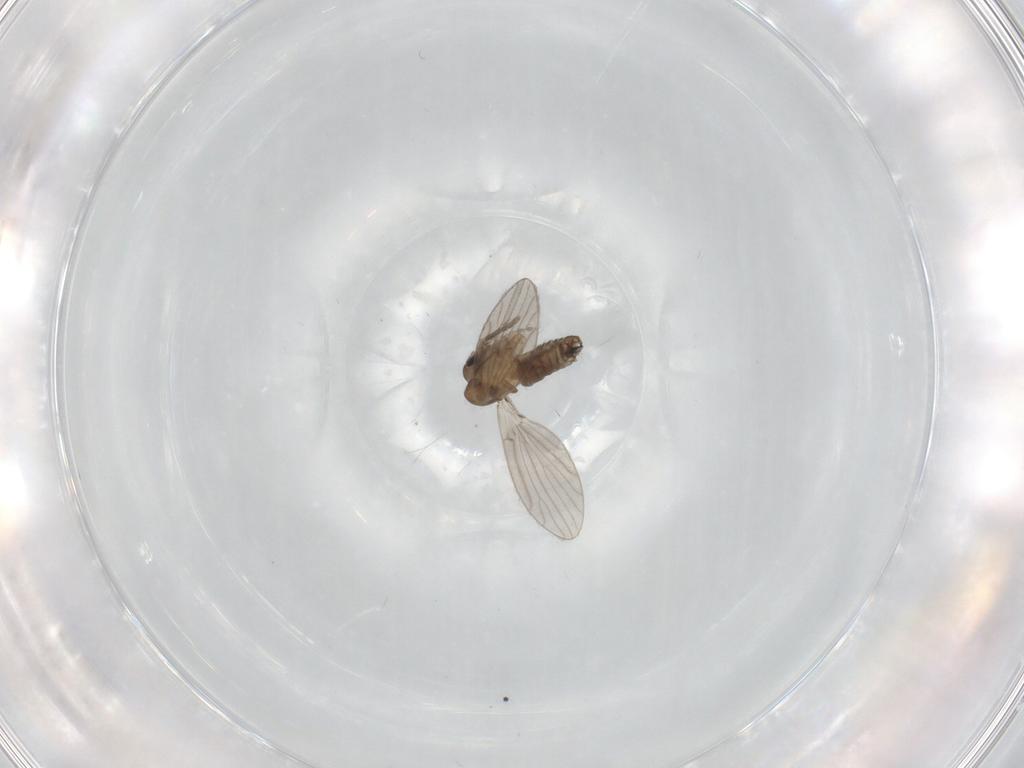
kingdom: Animalia
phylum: Arthropoda
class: Insecta
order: Diptera
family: Psychodidae
